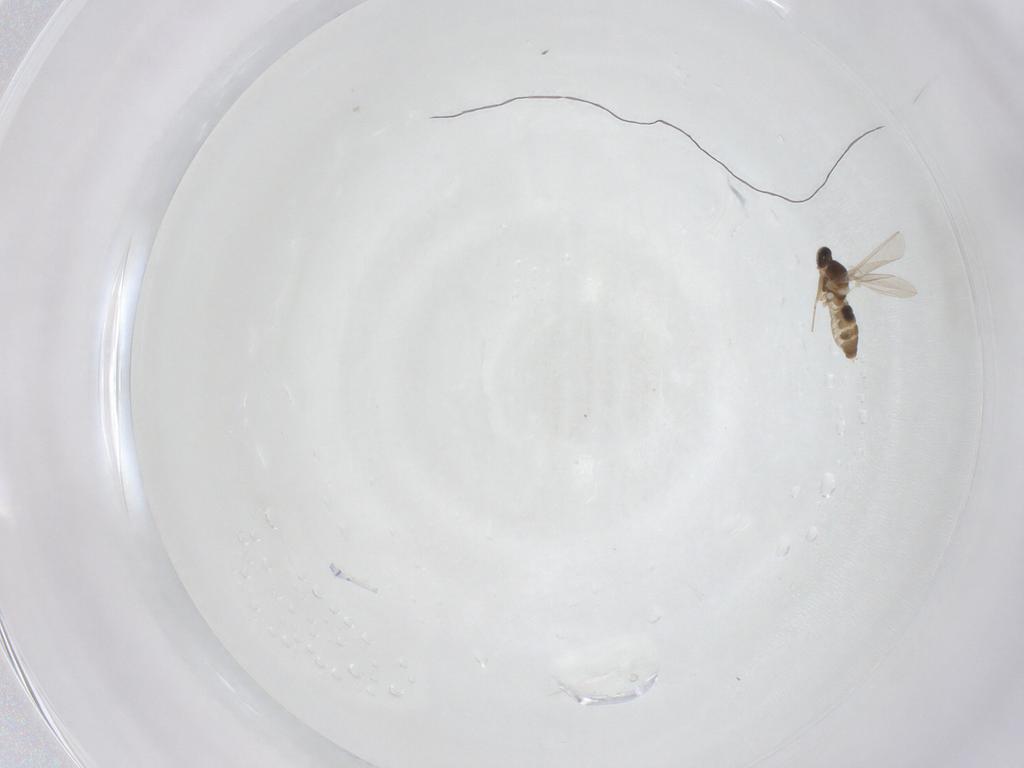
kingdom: Animalia
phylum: Arthropoda
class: Insecta
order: Diptera
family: Cecidomyiidae
